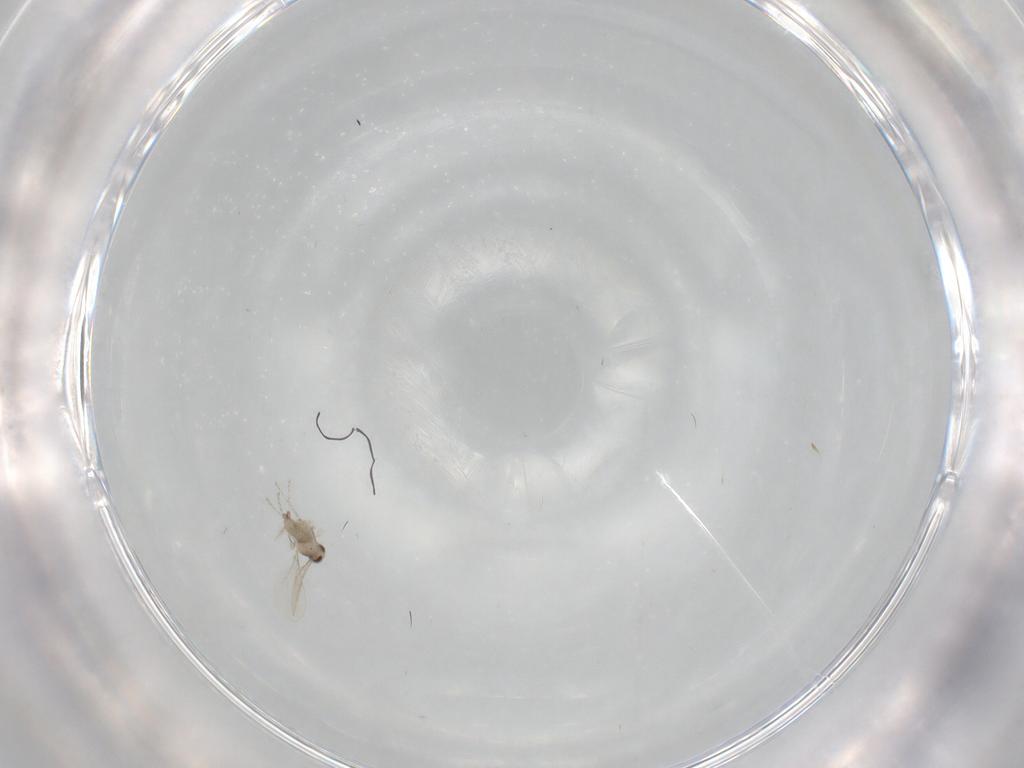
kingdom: Animalia
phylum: Arthropoda
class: Insecta
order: Diptera
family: Cecidomyiidae
